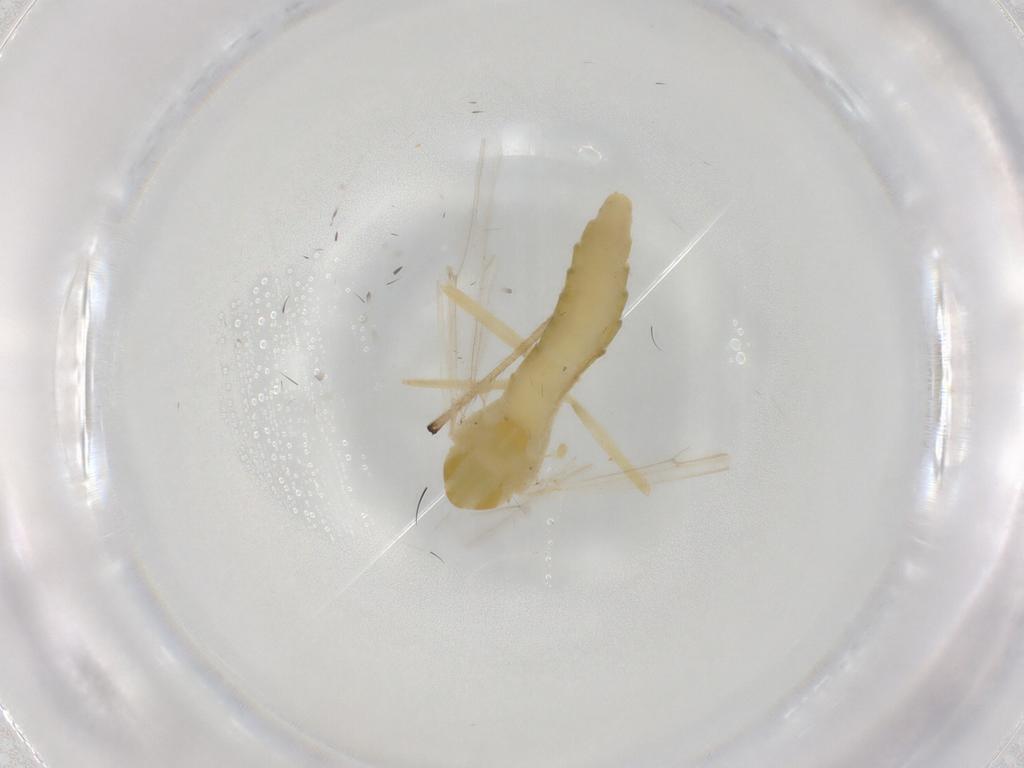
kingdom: Animalia
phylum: Arthropoda
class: Insecta
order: Diptera
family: Chironomidae
